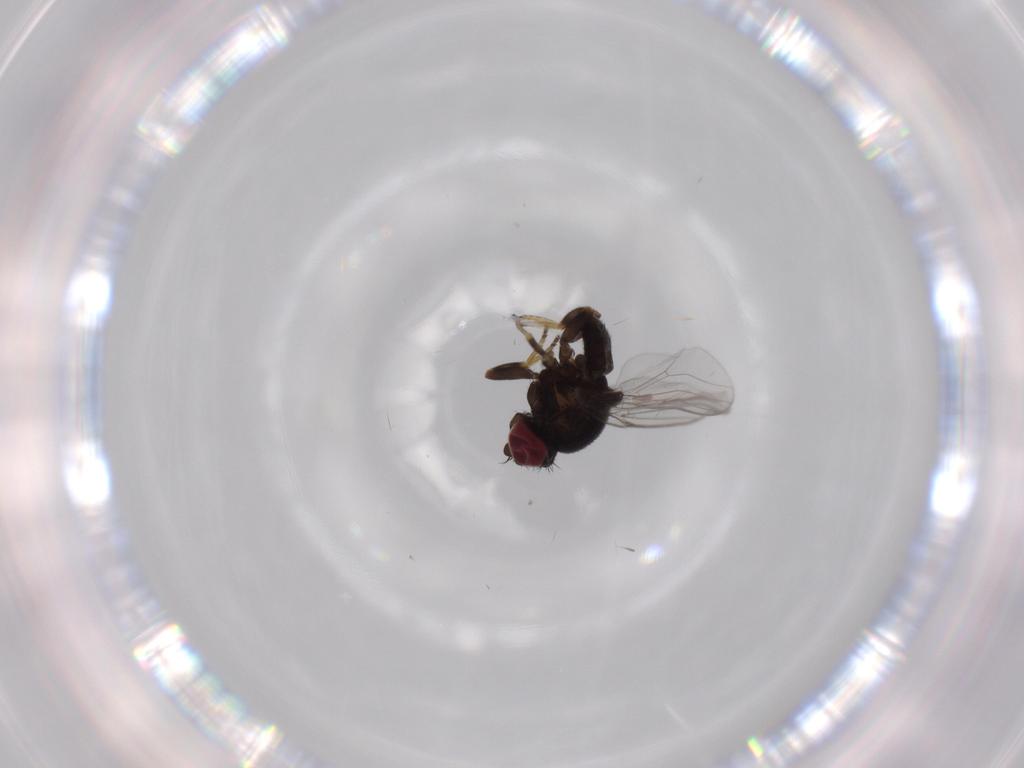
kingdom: Animalia
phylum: Arthropoda
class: Insecta
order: Diptera
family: Chloropidae
